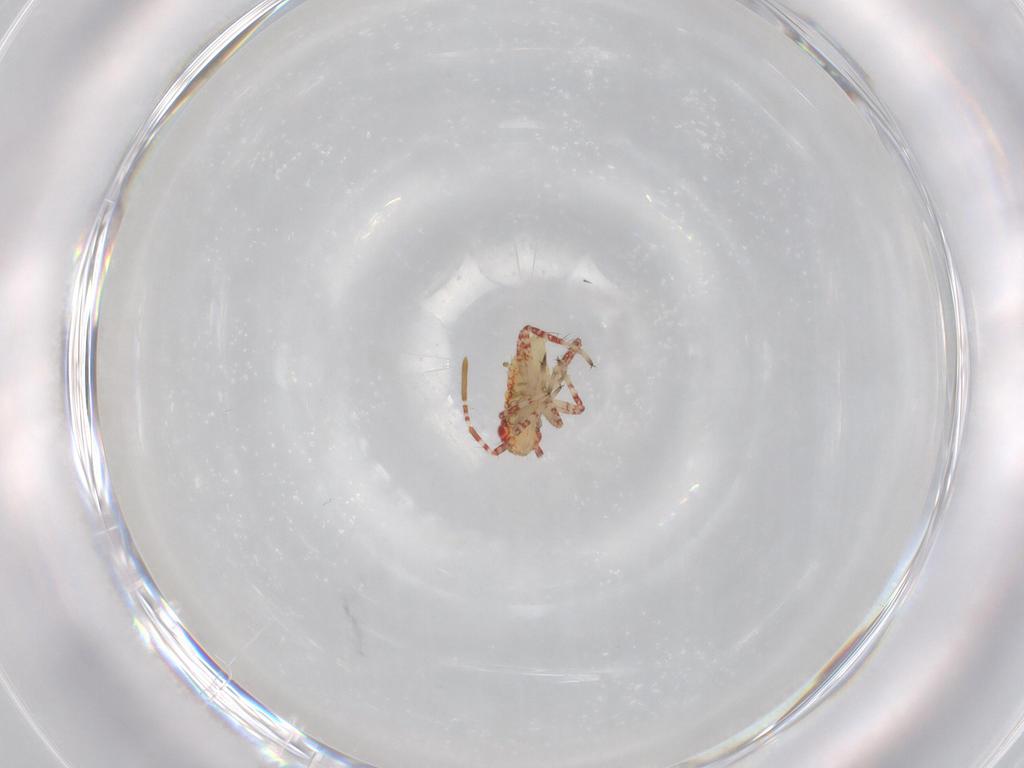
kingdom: Animalia
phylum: Arthropoda
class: Insecta
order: Hemiptera
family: Miridae
